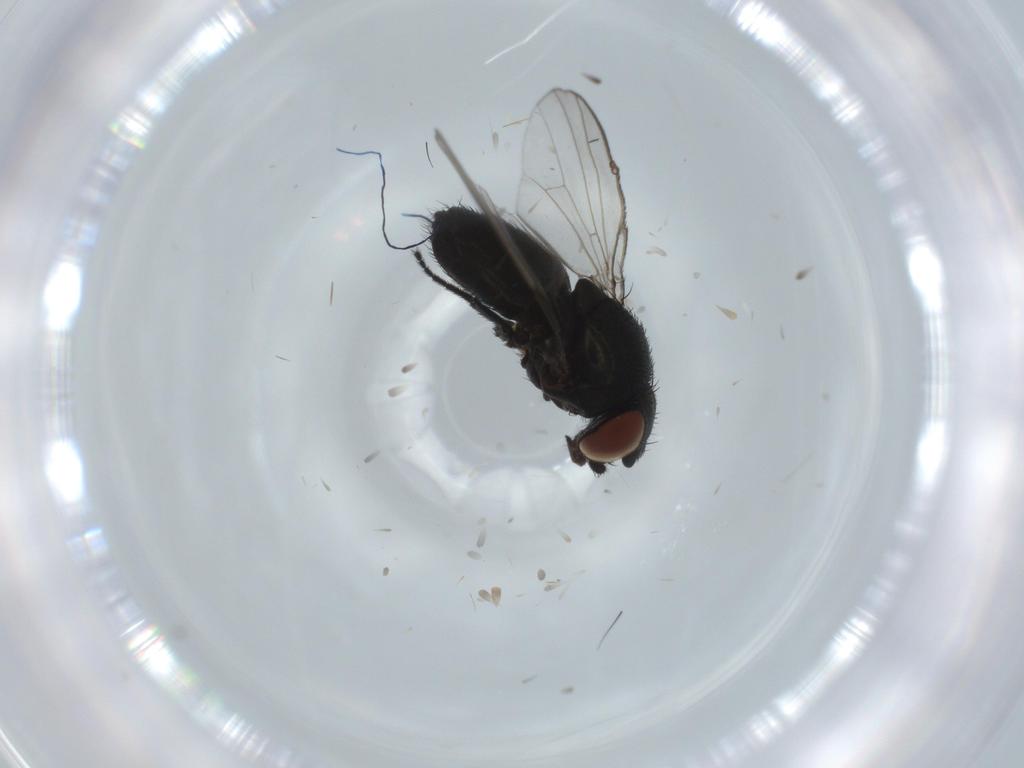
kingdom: Animalia
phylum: Arthropoda
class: Insecta
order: Diptera
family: Milichiidae
